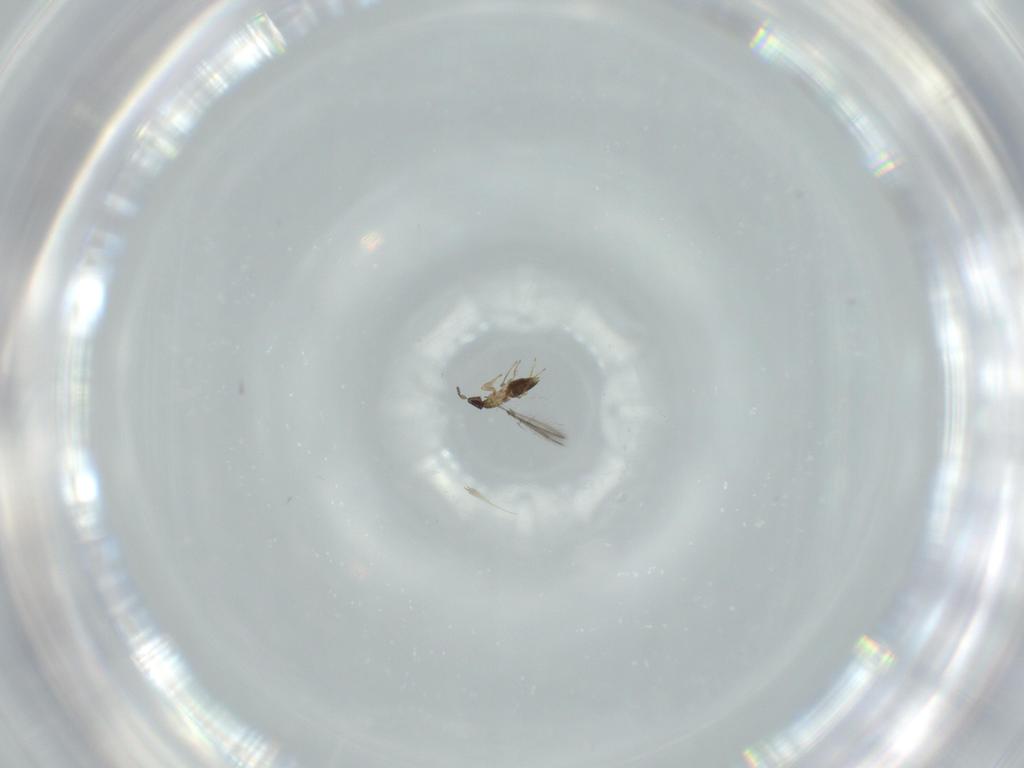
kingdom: Animalia
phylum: Arthropoda
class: Insecta
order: Hymenoptera
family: Mymaridae
